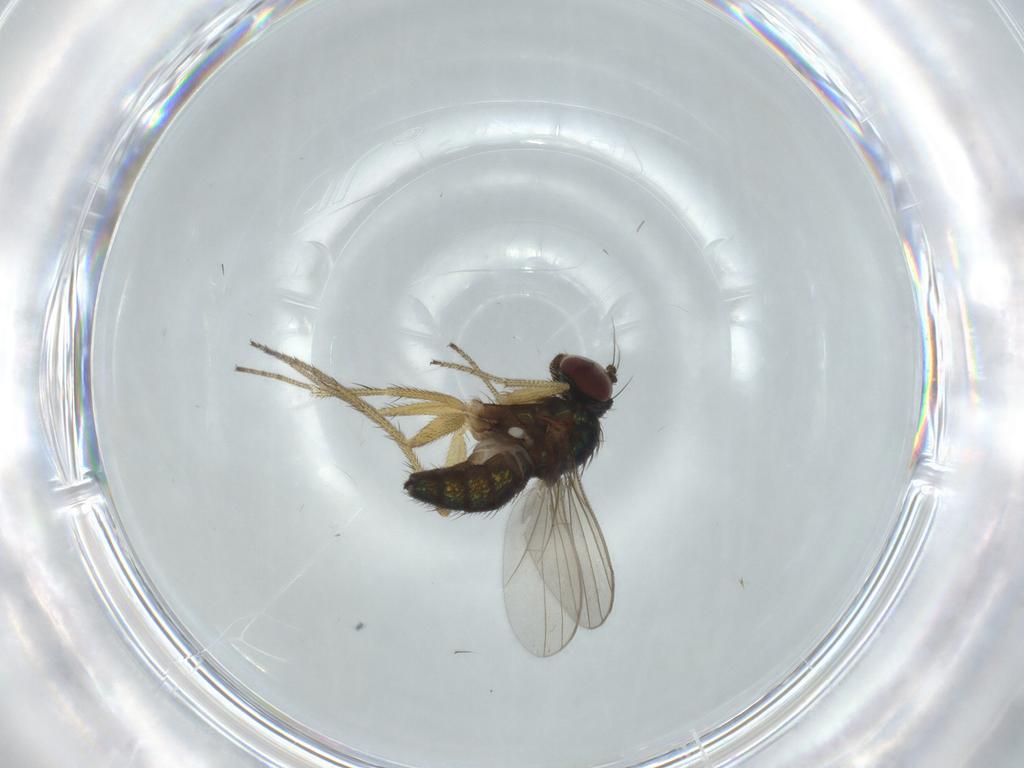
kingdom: Animalia
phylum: Arthropoda
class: Insecta
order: Diptera
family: Dolichopodidae
